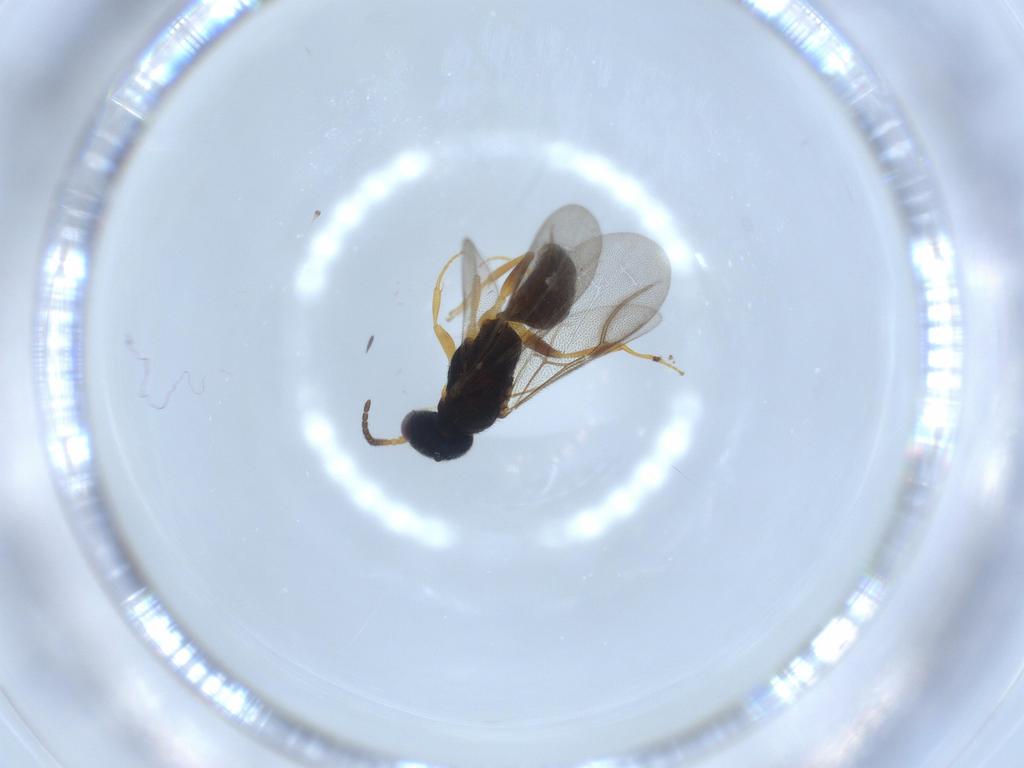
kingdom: Animalia
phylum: Arthropoda
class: Insecta
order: Hymenoptera
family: Bethylidae
